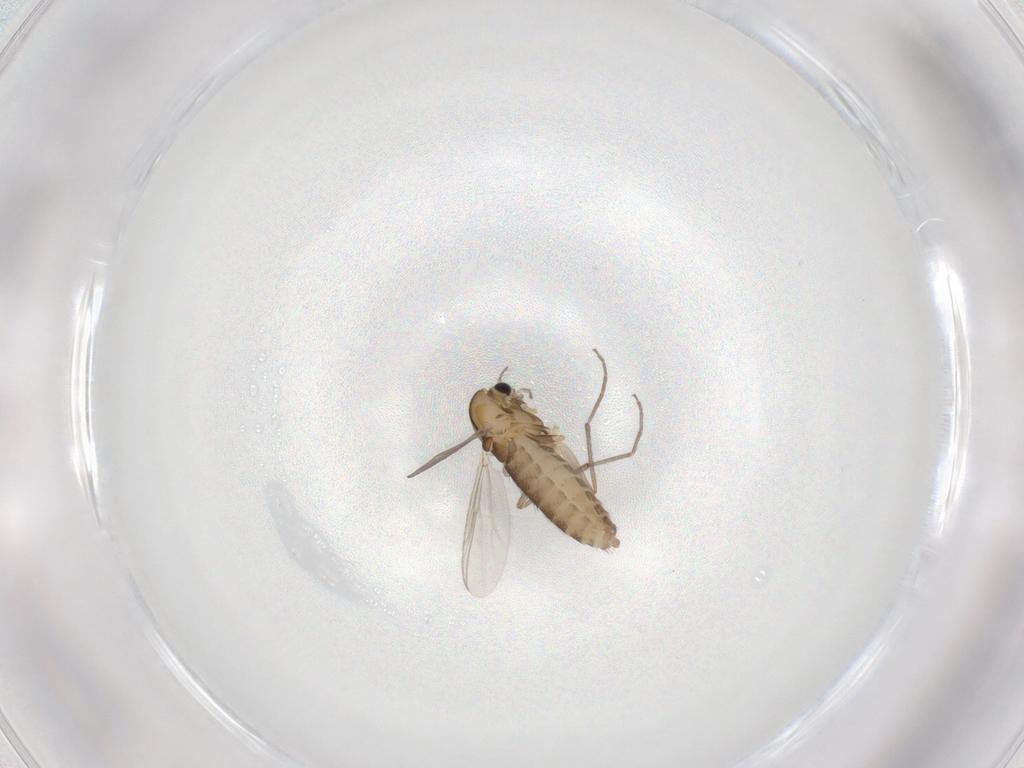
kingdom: Animalia
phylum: Arthropoda
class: Insecta
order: Diptera
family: Chironomidae
